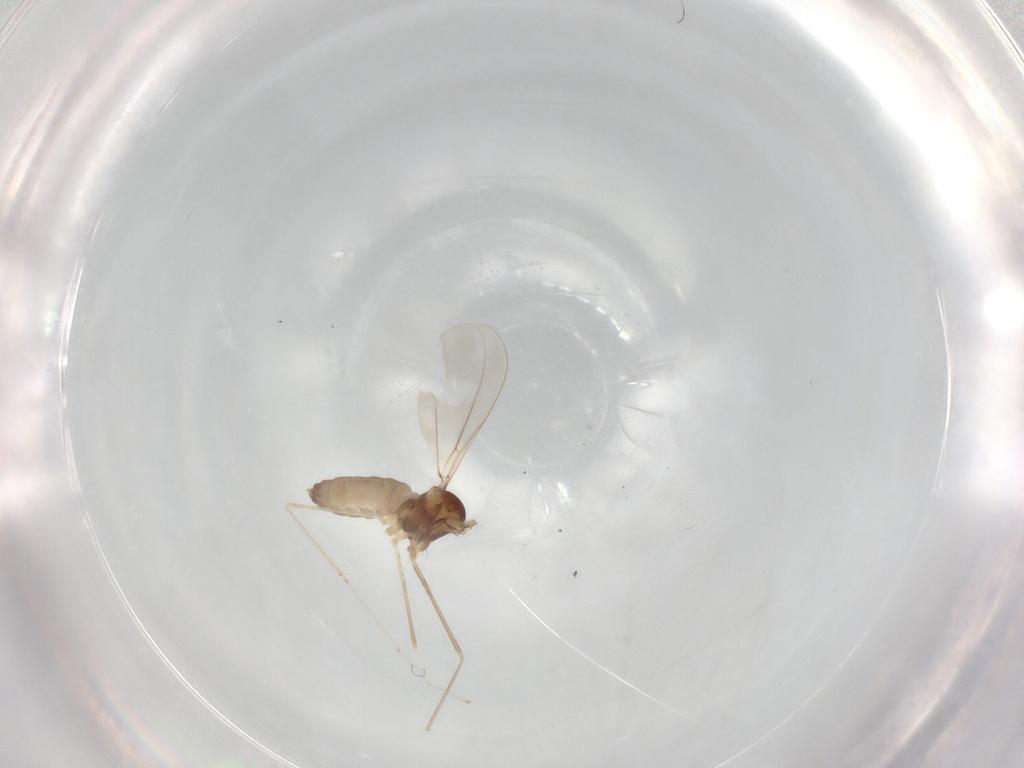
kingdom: Animalia
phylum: Arthropoda
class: Insecta
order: Diptera
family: Cecidomyiidae
